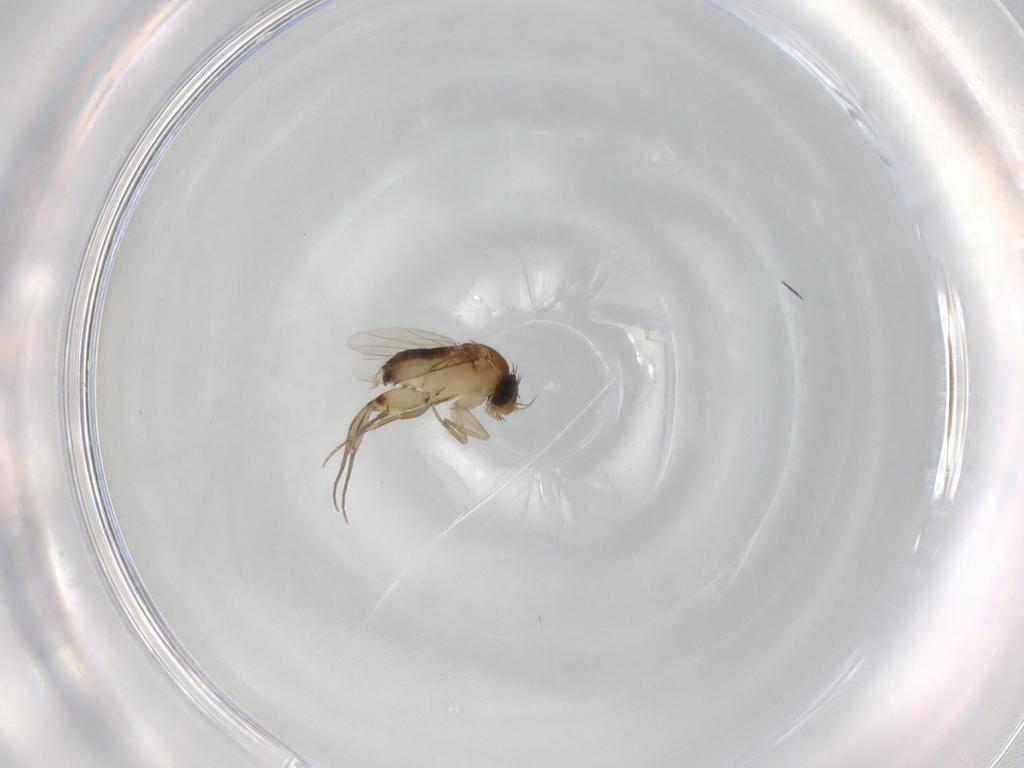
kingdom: Animalia
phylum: Arthropoda
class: Insecta
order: Diptera
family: Phoridae
